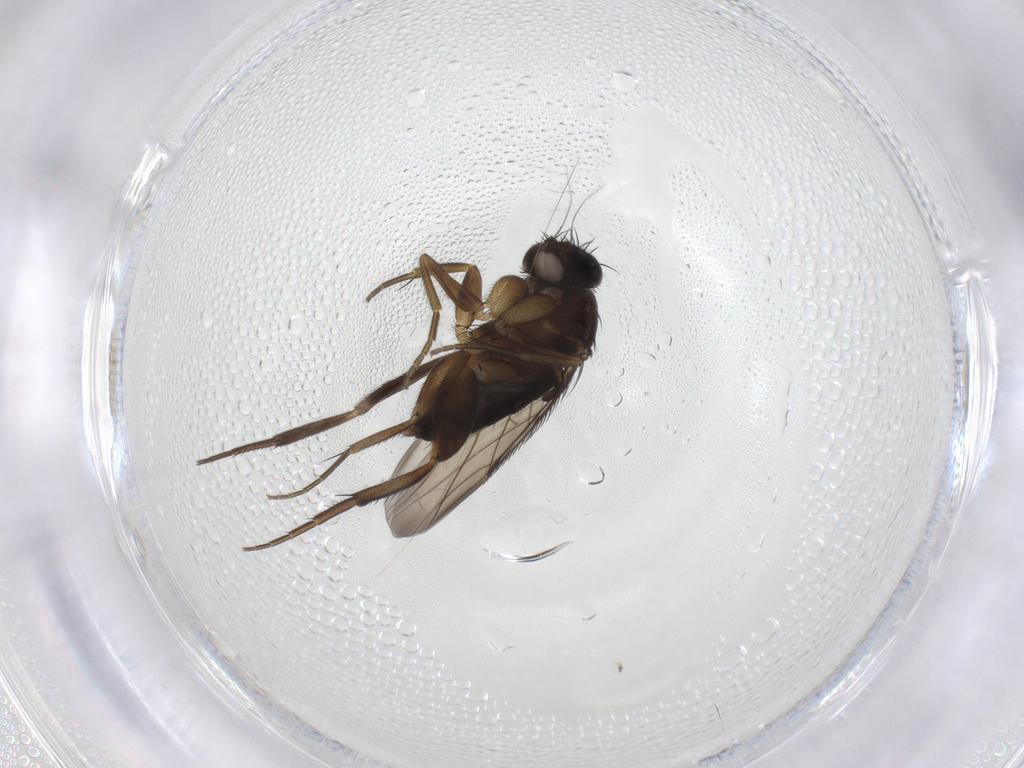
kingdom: Animalia
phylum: Arthropoda
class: Insecta
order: Diptera
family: Phoridae
